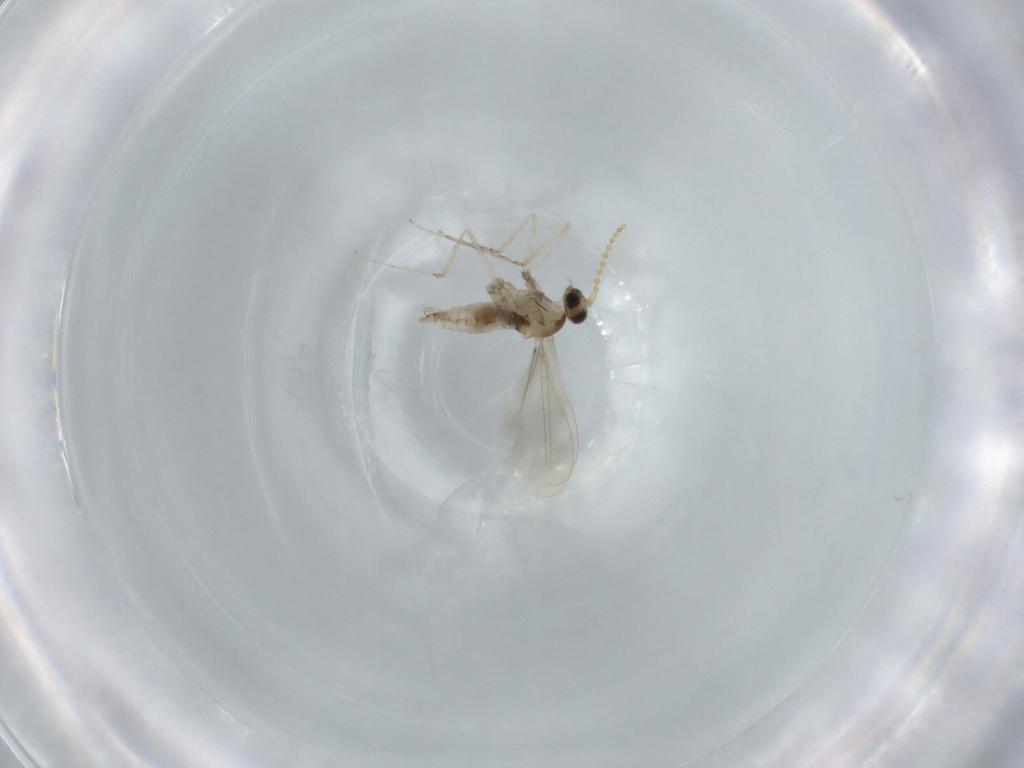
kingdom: Animalia
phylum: Arthropoda
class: Insecta
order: Diptera
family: Cecidomyiidae
